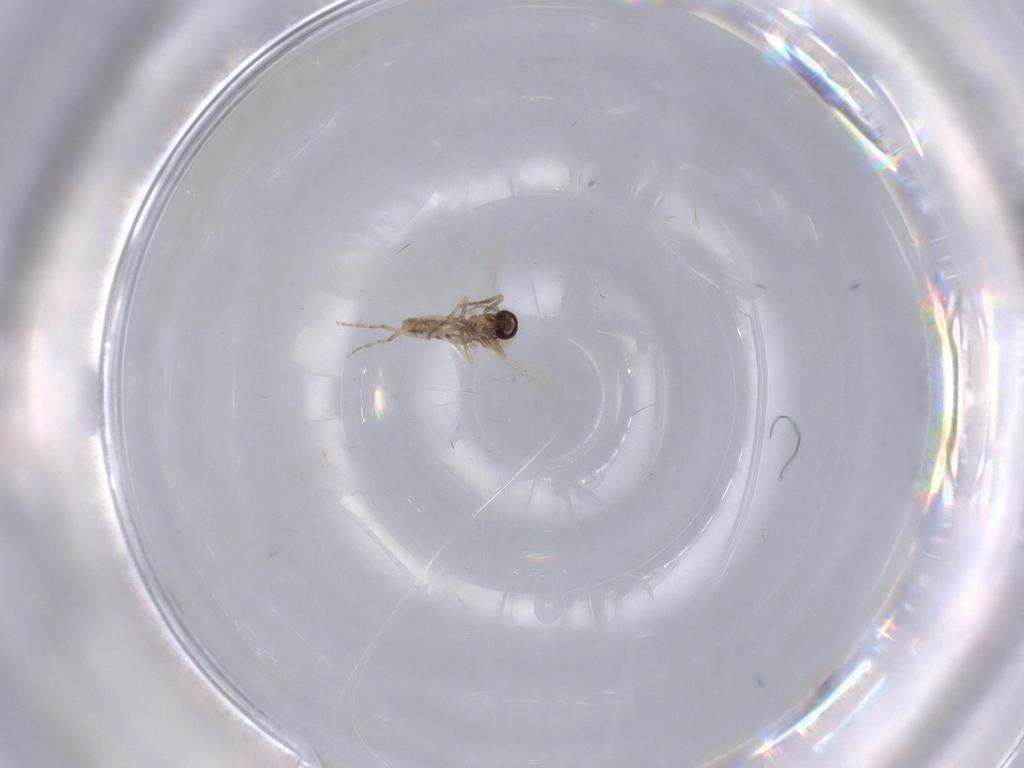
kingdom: Animalia
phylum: Arthropoda
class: Insecta
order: Diptera
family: Ceratopogonidae
